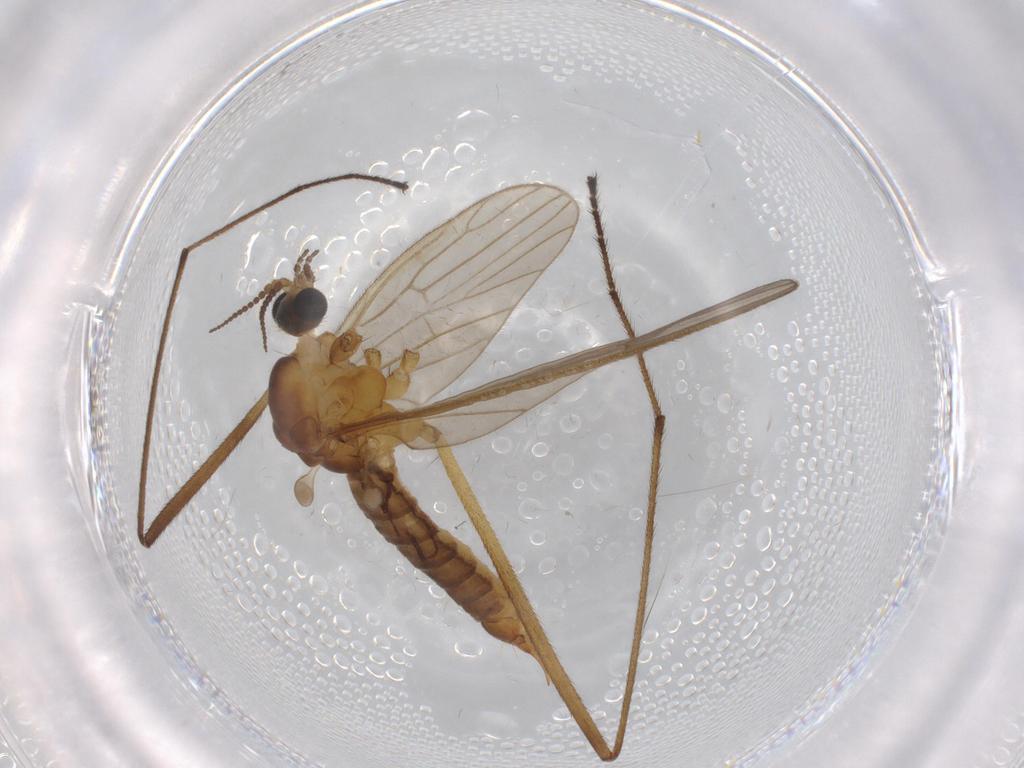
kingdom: Animalia
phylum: Arthropoda
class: Insecta
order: Diptera
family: Limoniidae
